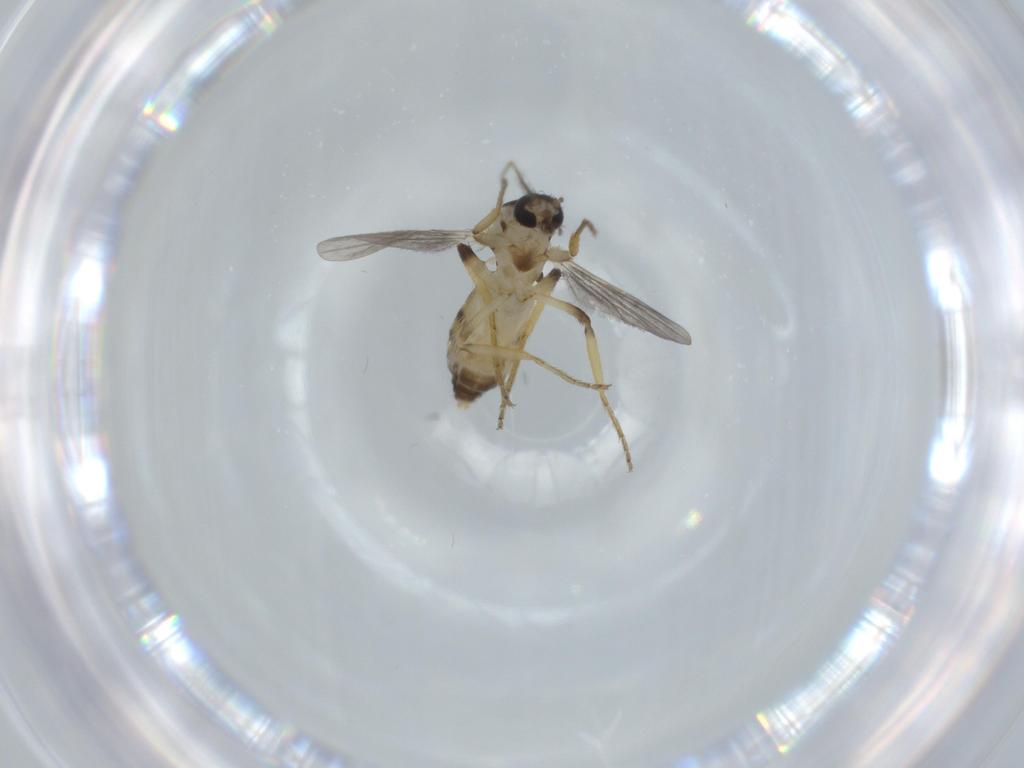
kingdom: Animalia
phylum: Arthropoda
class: Insecta
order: Diptera
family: Ceratopogonidae
